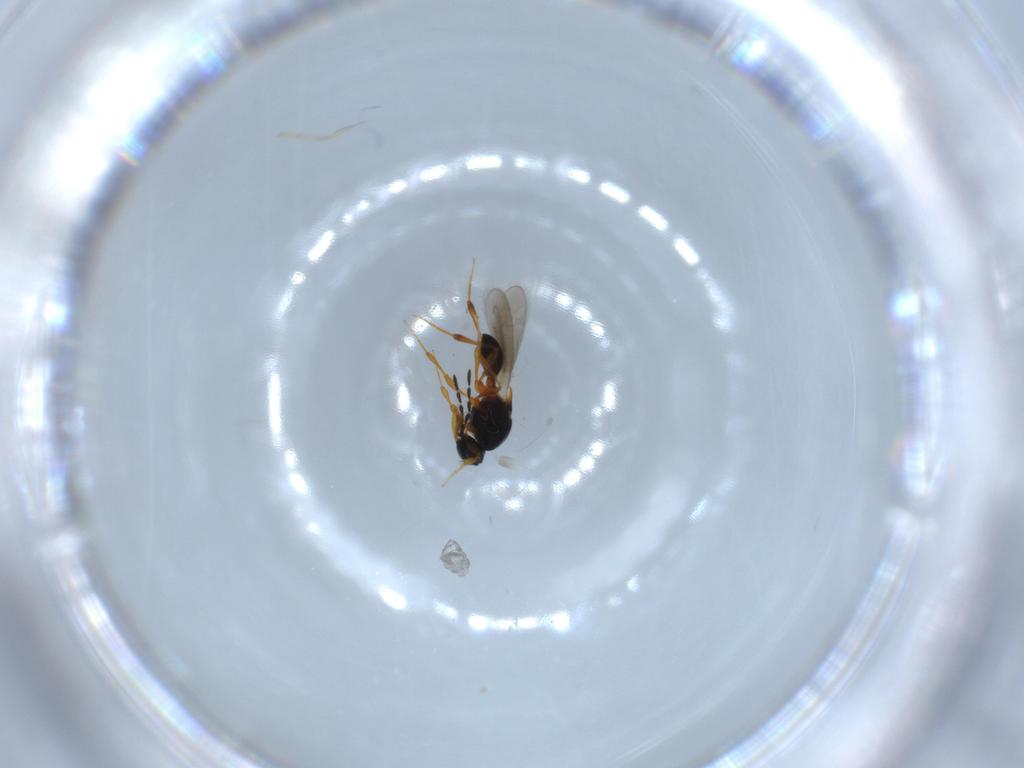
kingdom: Animalia
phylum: Arthropoda
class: Insecta
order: Hymenoptera
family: Platygastridae
